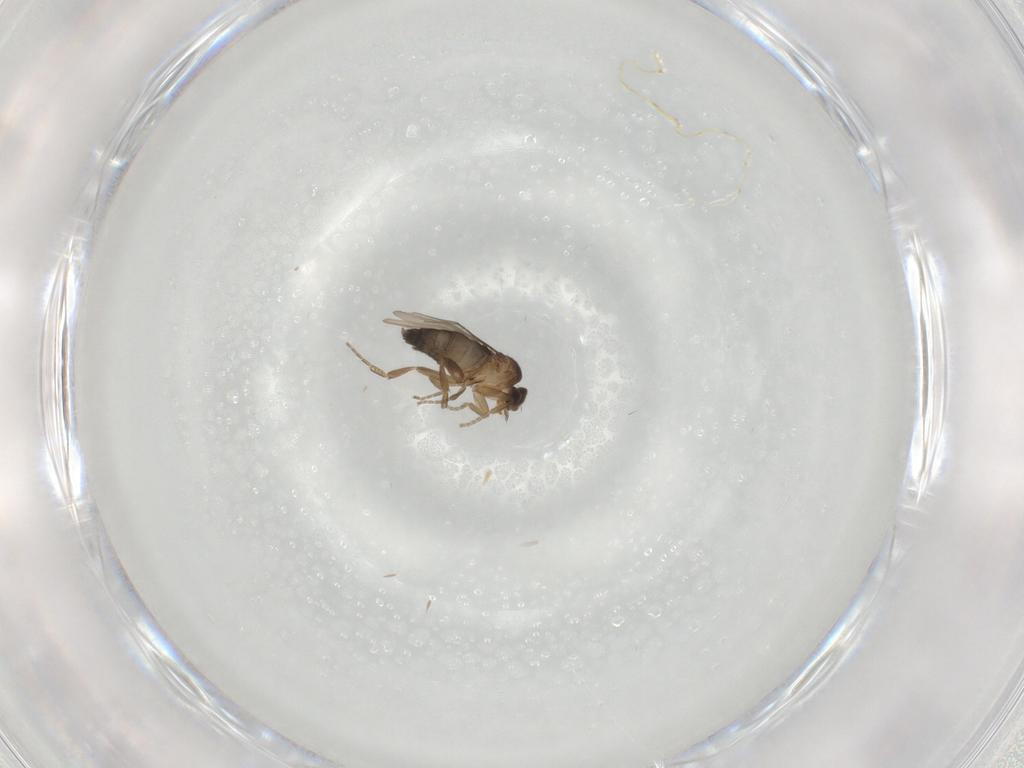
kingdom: Animalia
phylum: Arthropoda
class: Insecta
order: Diptera
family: Phoridae
